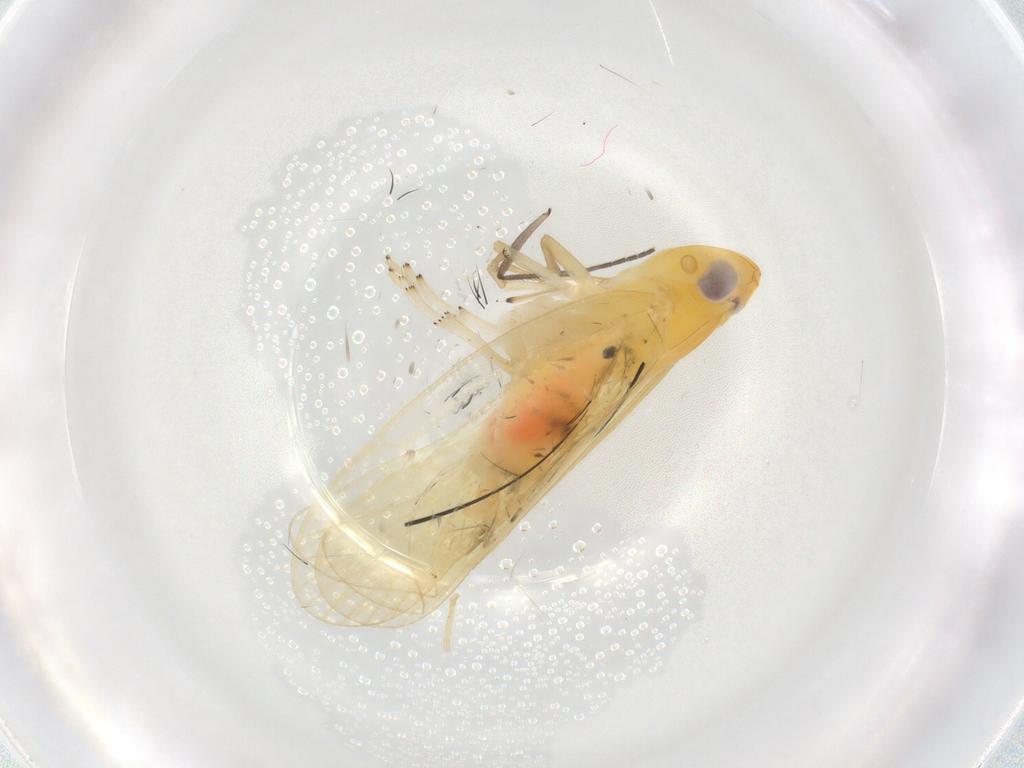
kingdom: Animalia
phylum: Arthropoda
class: Insecta
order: Hemiptera
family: Cixiidae
